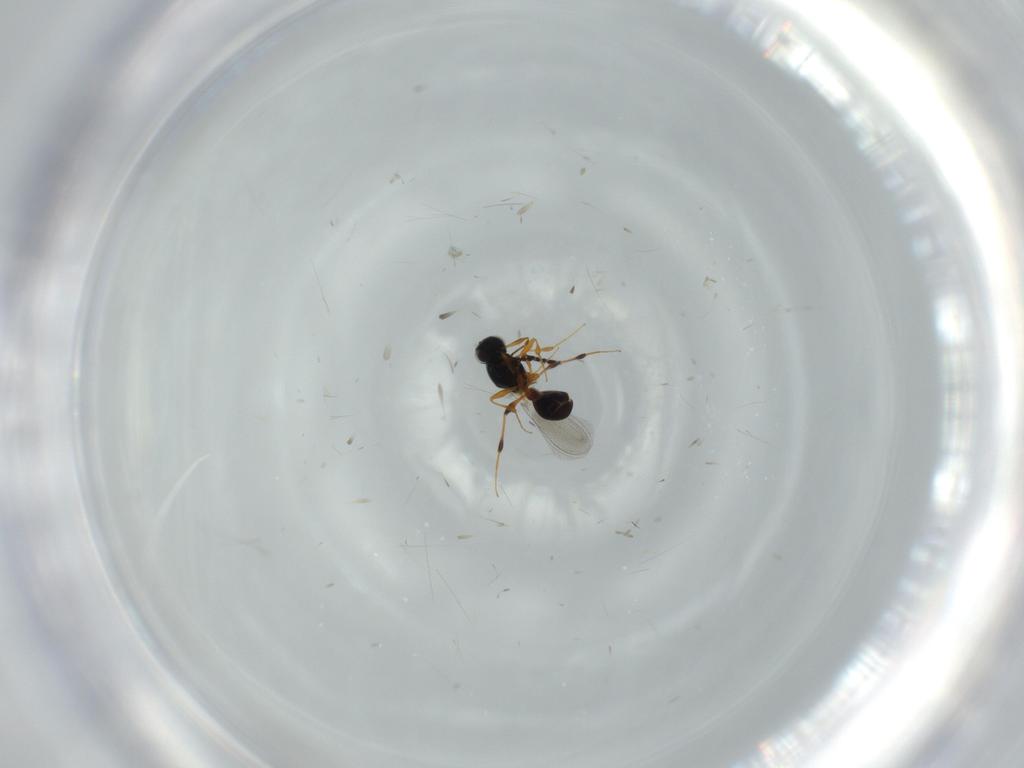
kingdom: Animalia
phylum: Arthropoda
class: Insecta
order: Hymenoptera
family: Platygastridae
